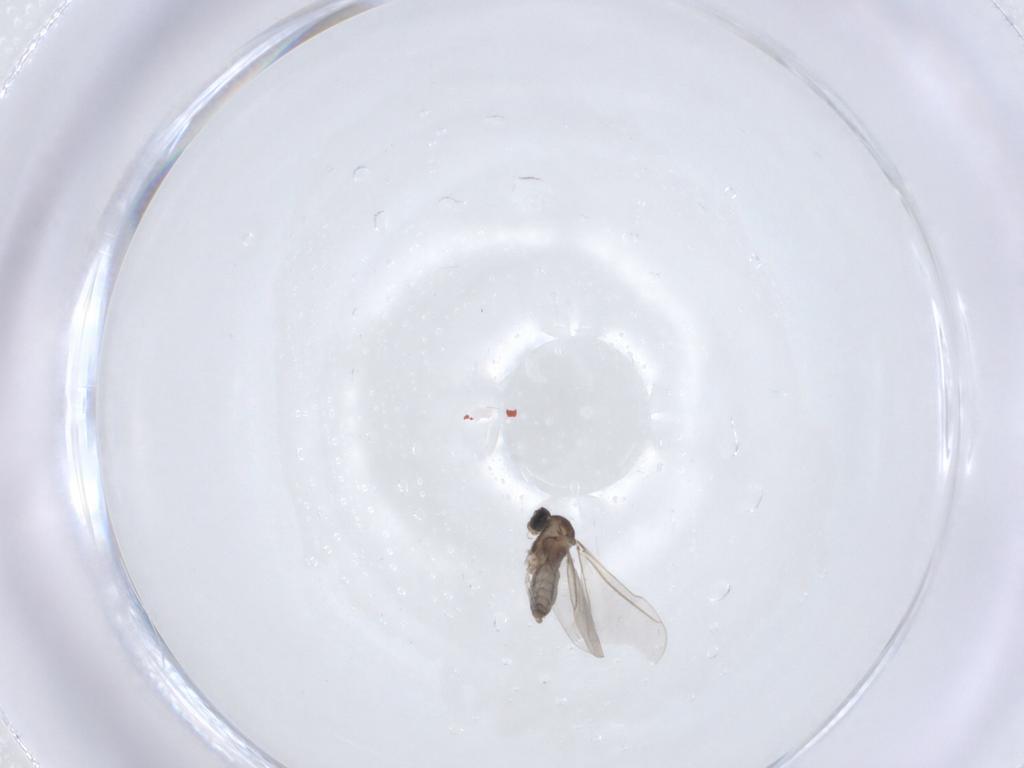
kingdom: Animalia
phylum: Arthropoda
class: Insecta
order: Diptera
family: Cecidomyiidae
